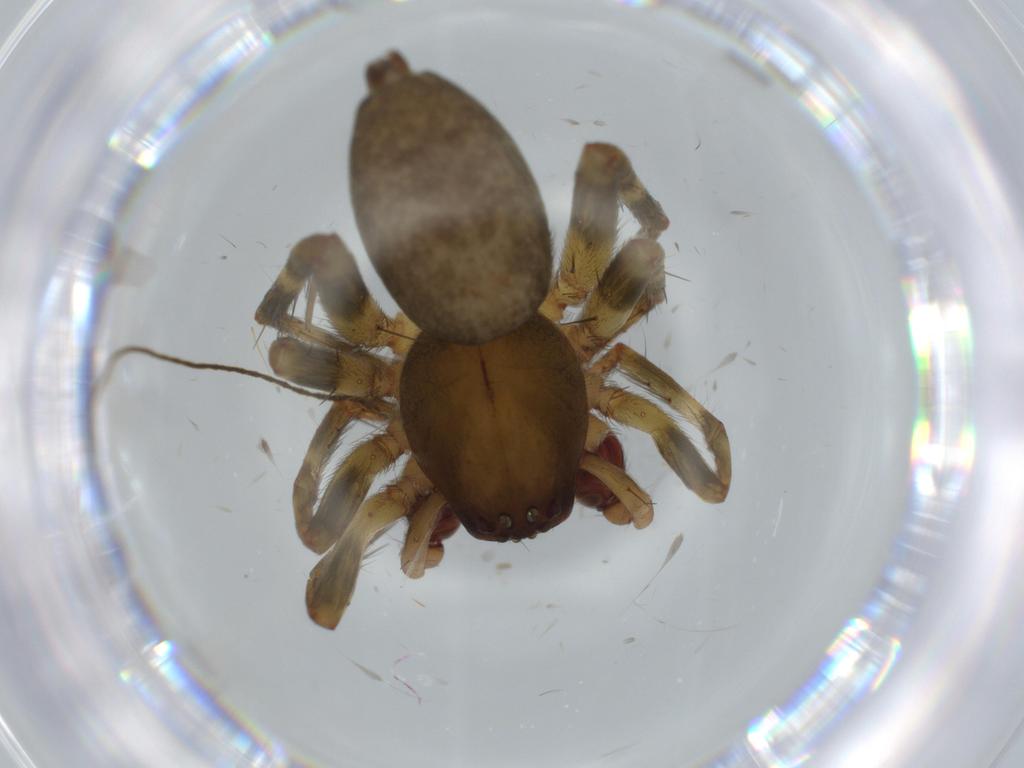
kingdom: Animalia
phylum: Arthropoda
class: Arachnida
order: Araneae
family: Anyphaenidae
